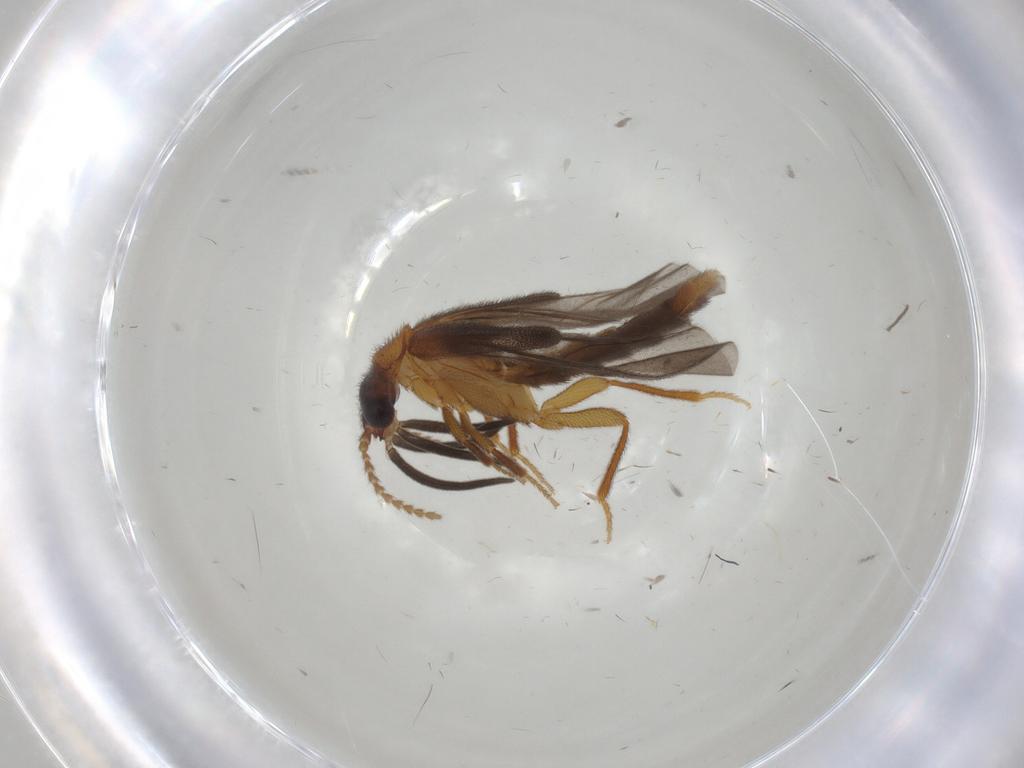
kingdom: Animalia
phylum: Arthropoda
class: Insecta
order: Coleoptera
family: Omethidae
